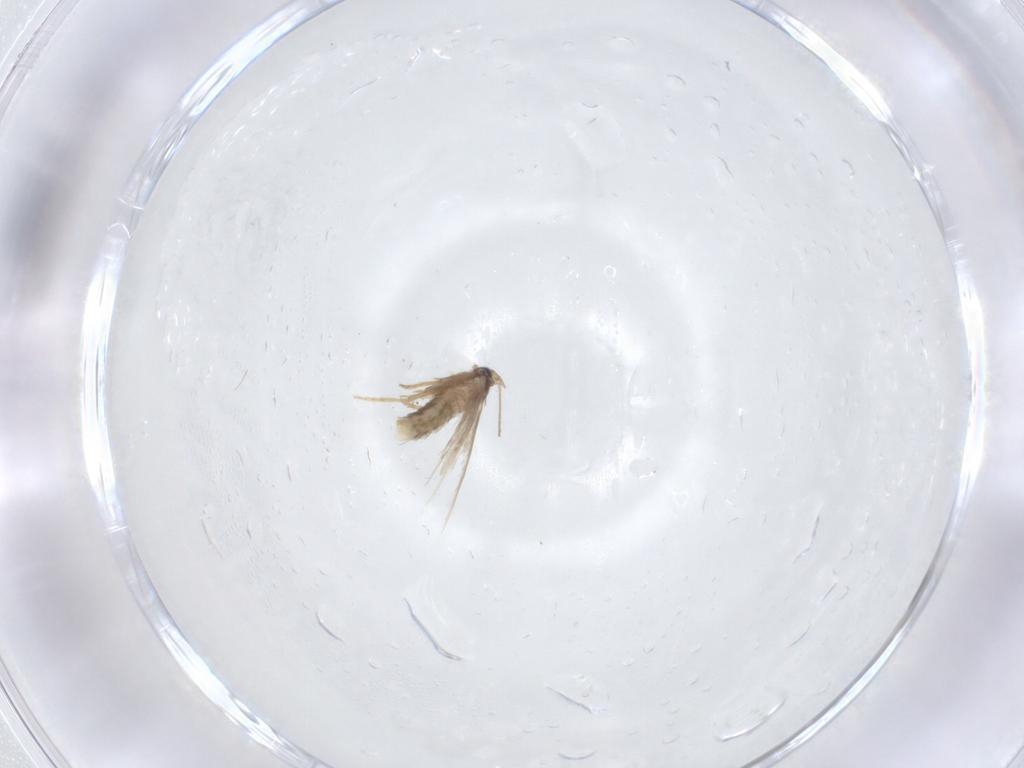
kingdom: Animalia
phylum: Arthropoda
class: Insecta
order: Lepidoptera
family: Nepticulidae
